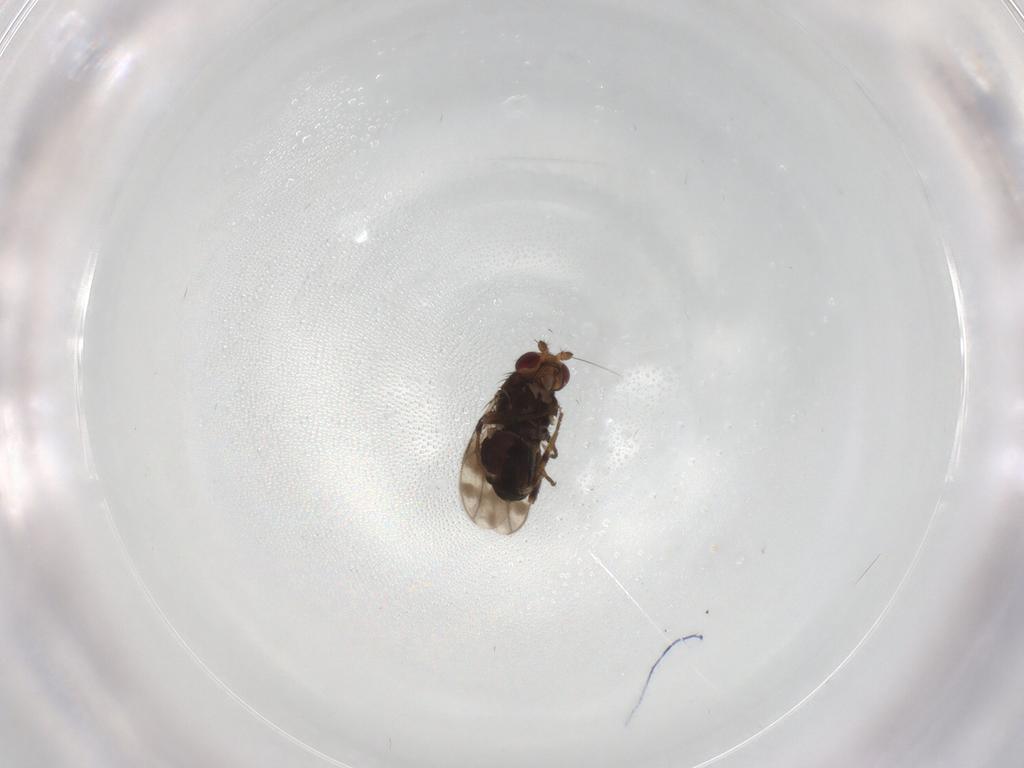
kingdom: Animalia
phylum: Arthropoda
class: Insecta
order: Diptera
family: Sphaeroceridae
